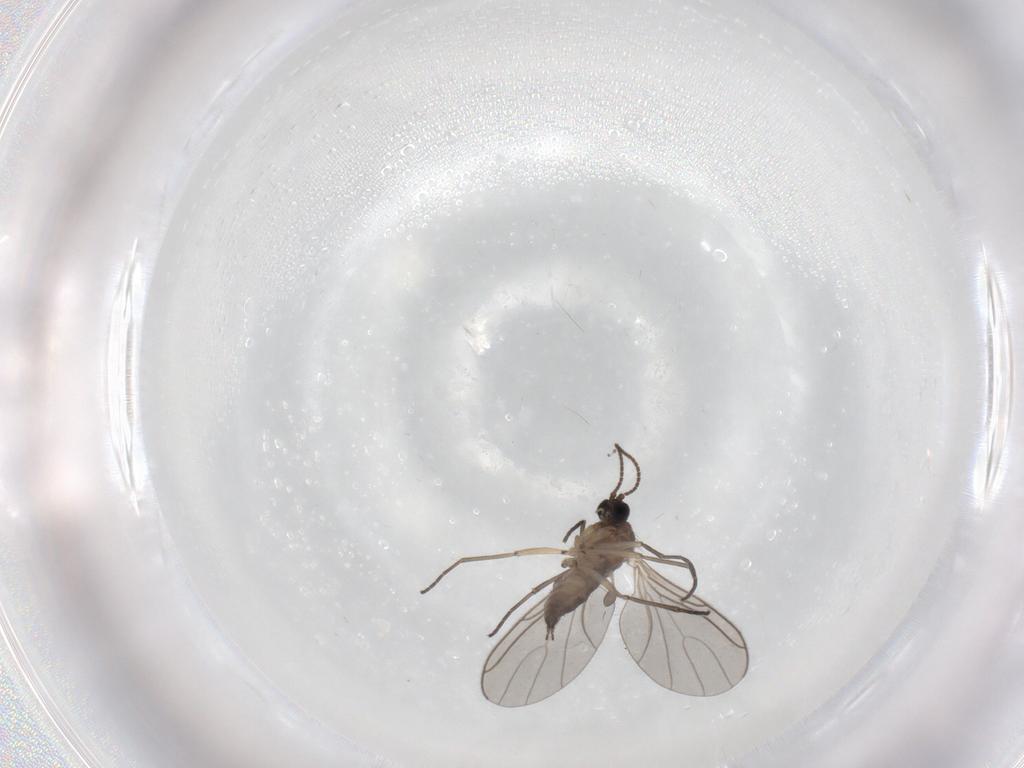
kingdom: Animalia
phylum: Arthropoda
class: Insecta
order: Diptera
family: Sciaridae
